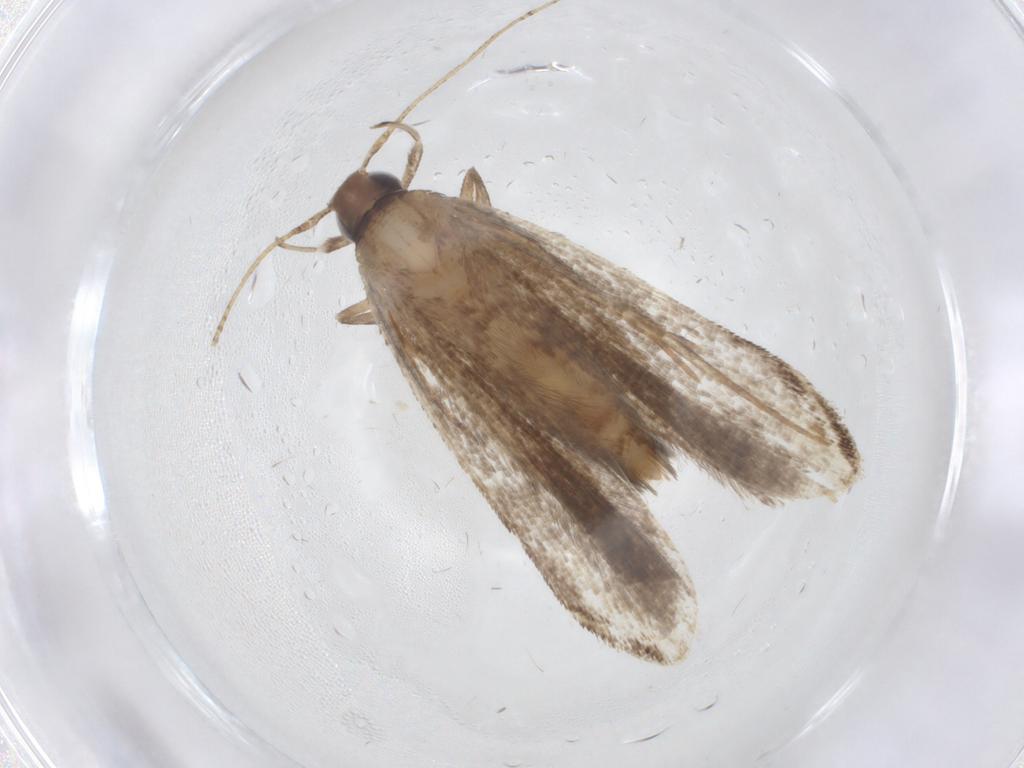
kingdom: Animalia
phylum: Arthropoda
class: Insecta
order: Lepidoptera
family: Gelechiidae
